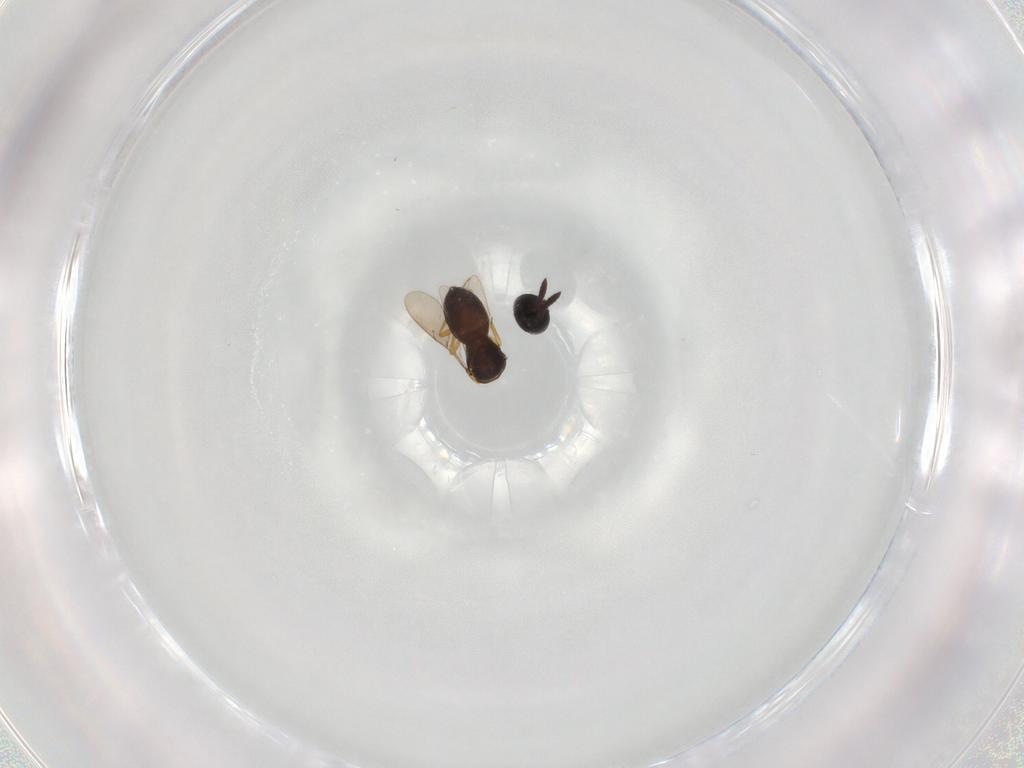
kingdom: Animalia
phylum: Arthropoda
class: Insecta
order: Hymenoptera
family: Scelionidae
